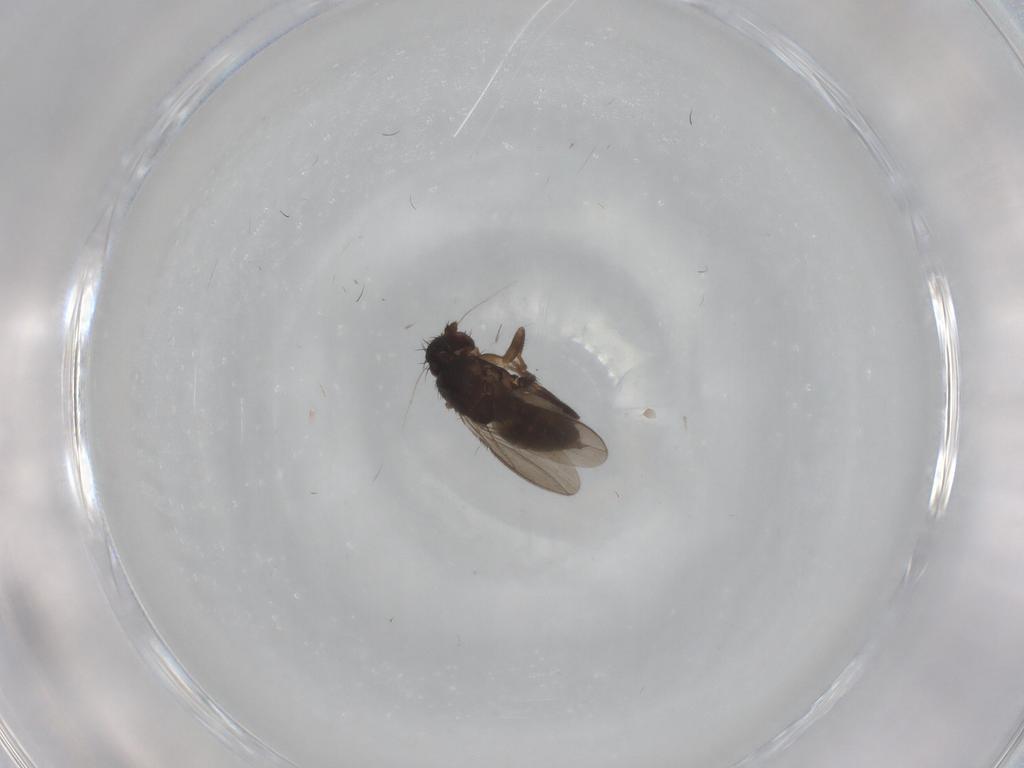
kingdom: Animalia
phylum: Arthropoda
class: Insecta
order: Diptera
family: Sphaeroceridae
